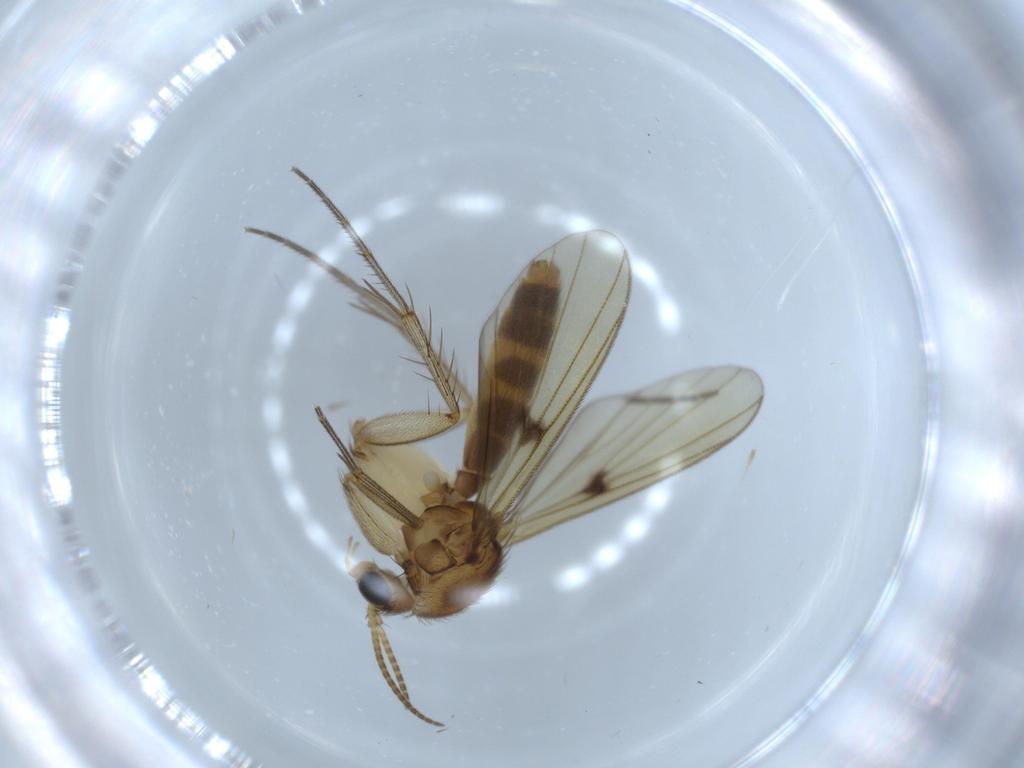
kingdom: Animalia
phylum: Arthropoda
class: Insecta
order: Diptera
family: Mycetophilidae
